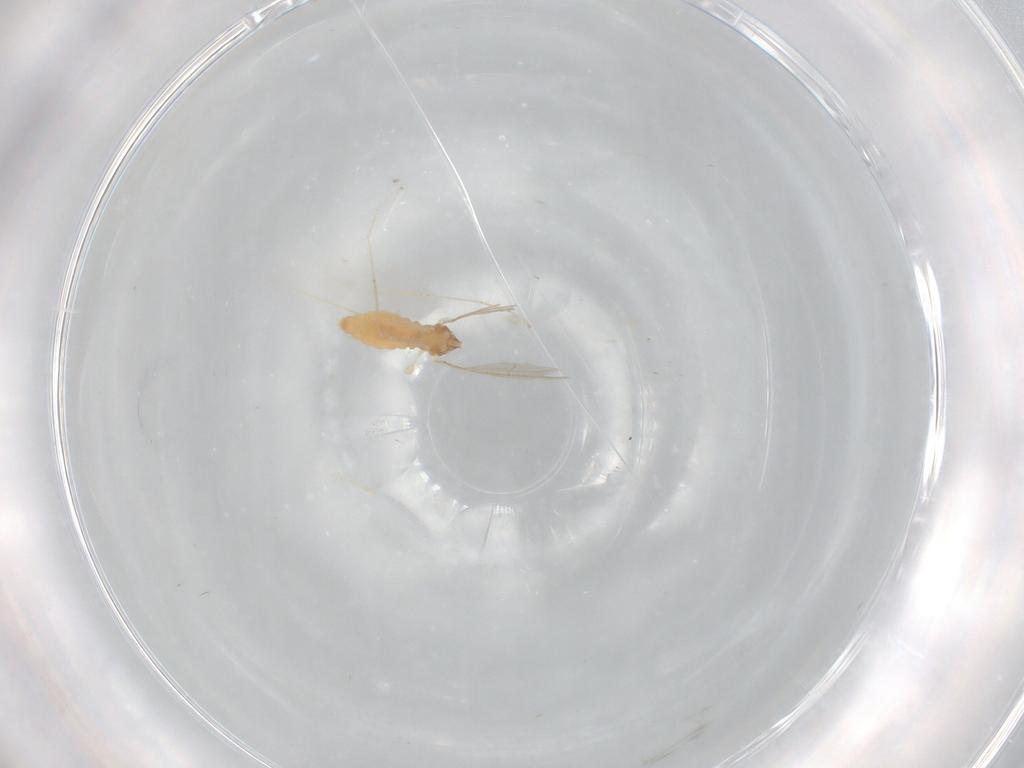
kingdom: Animalia
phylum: Arthropoda
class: Insecta
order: Diptera
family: Cecidomyiidae
